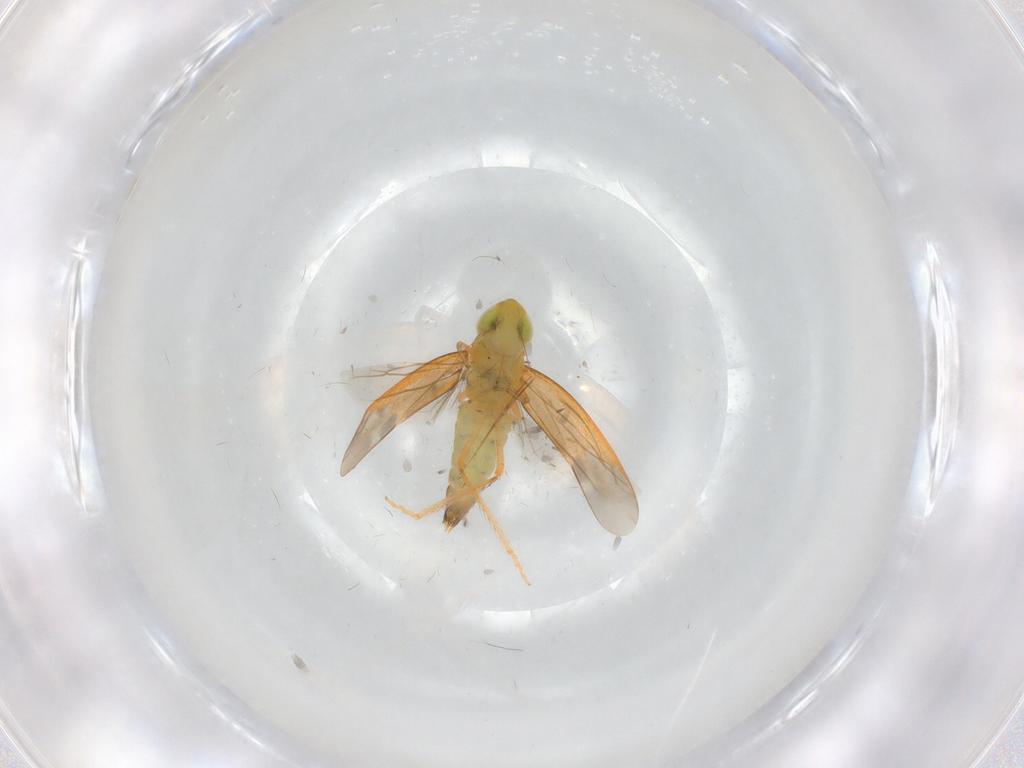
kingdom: Animalia
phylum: Arthropoda
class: Insecta
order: Hemiptera
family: Cicadellidae
